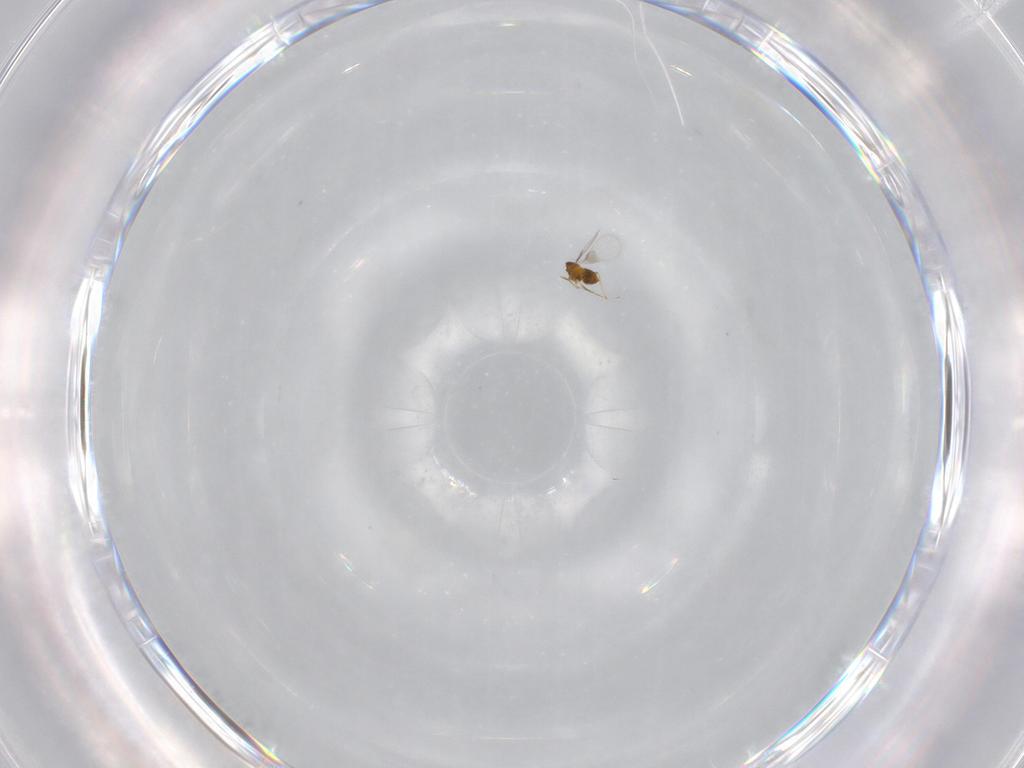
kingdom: Animalia
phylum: Arthropoda
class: Insecta
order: Hymenoptera
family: Trichogrammatidae
